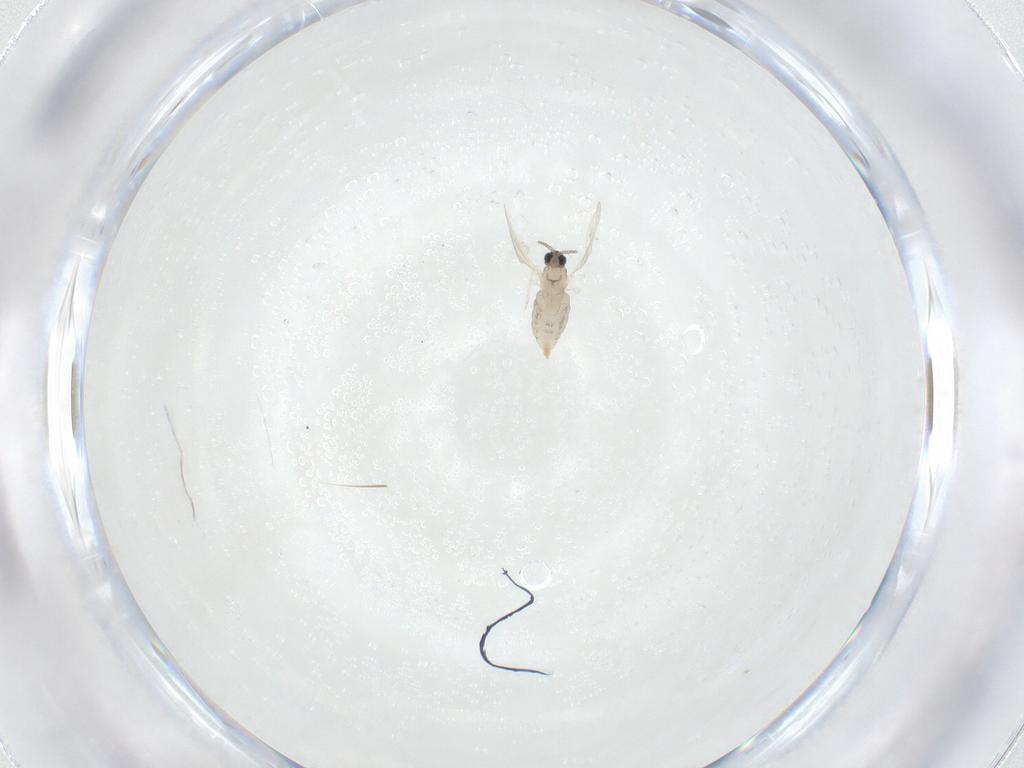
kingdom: Animalia
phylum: Arthropoda
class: Insecta
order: Diptera
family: Cecidomyiidae
